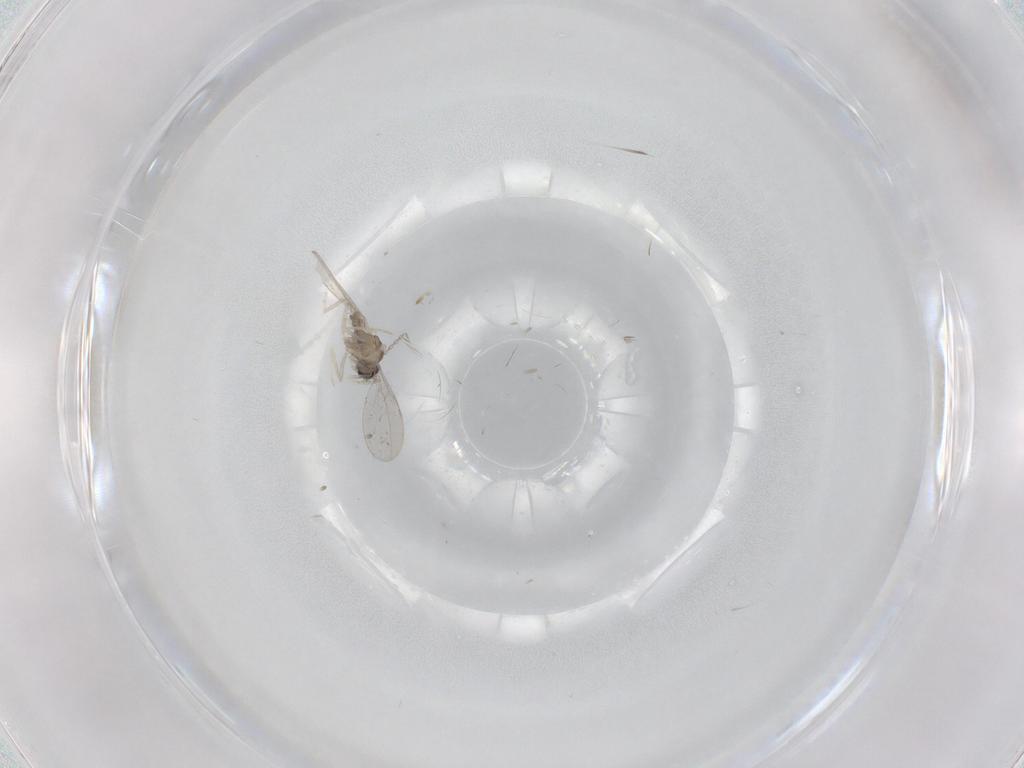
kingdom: Animalia
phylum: Arthropoda
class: Insecta
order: Diptera
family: Cecidomyiidae
